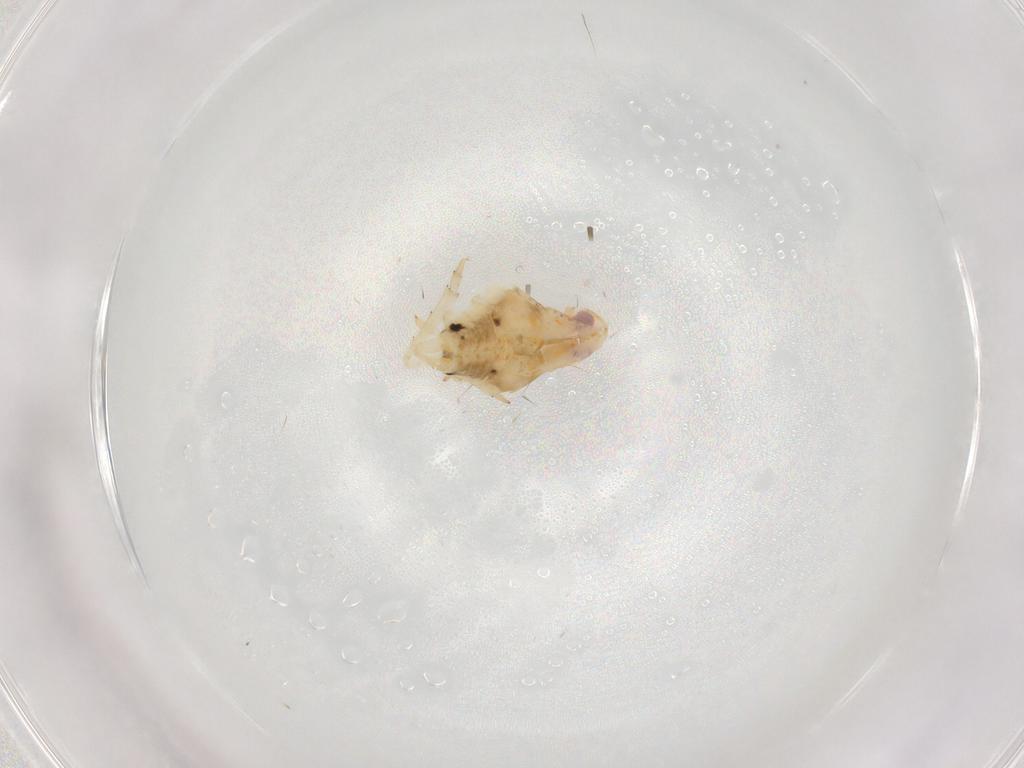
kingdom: Animalia
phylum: Arthropoda
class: Insecta
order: Hemiptera
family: Flatidae
